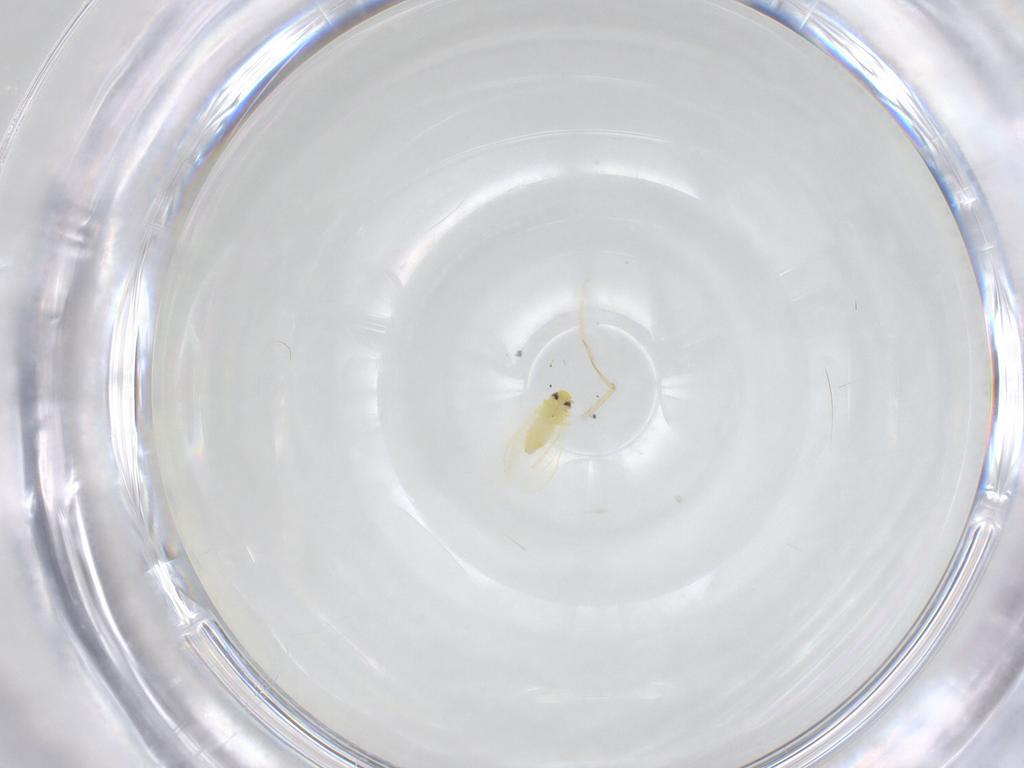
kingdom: Animalia
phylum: Arthropoda
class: Insecta
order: Hemiptera
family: Aleyrodidae
